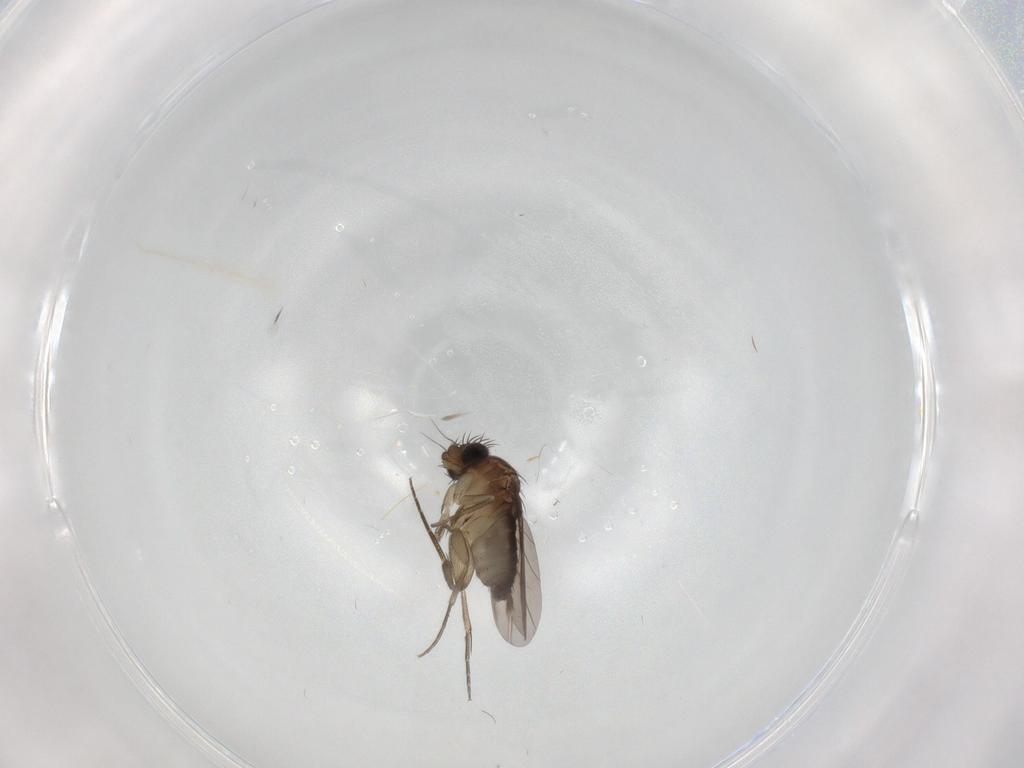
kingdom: Animalia
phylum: Arthropoda
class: Insecta
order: Diptera
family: Phoridae
